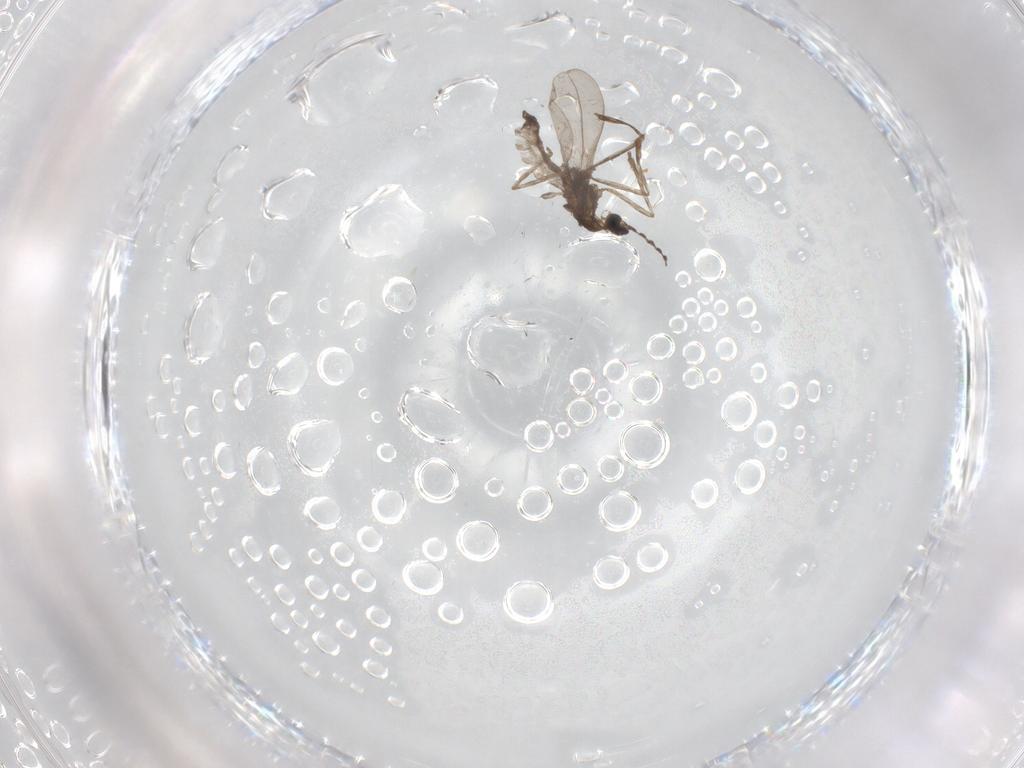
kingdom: Animalia
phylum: Arthropoda
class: Insecta
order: Diptera
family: Cecidomyiidae
